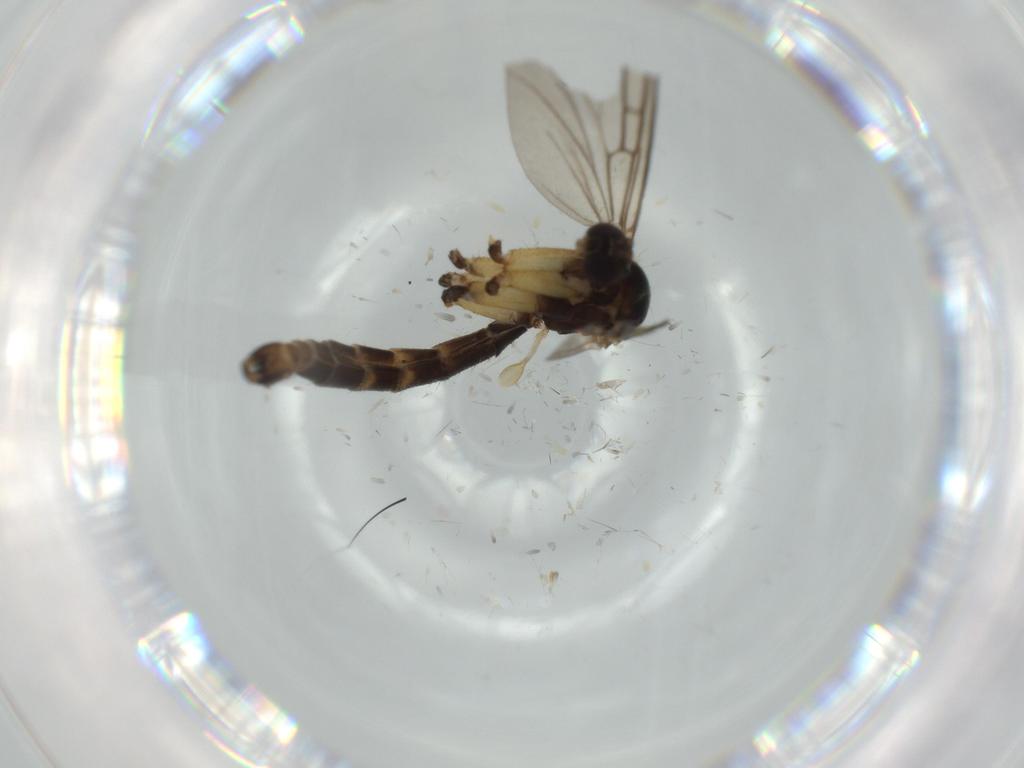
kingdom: Animalia
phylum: Arthropoda
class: Insecta
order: Diptera
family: Mycetophilidae
